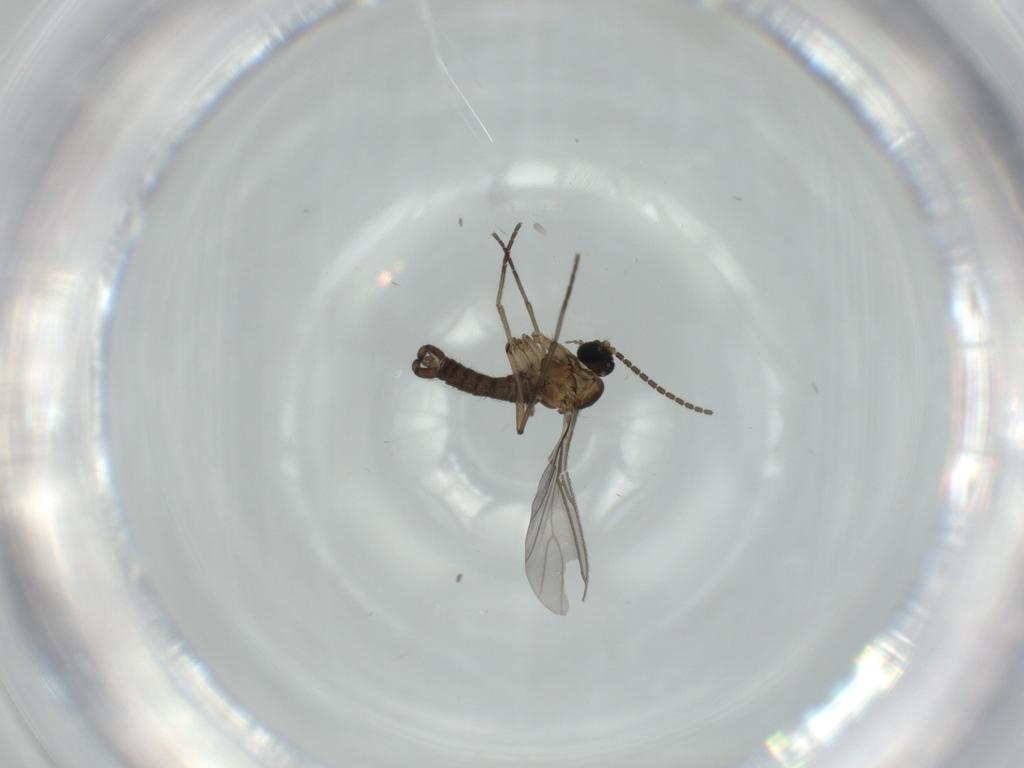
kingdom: Animalia
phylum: Arthropoda
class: Insecta
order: Diptera
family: Sciaridae
